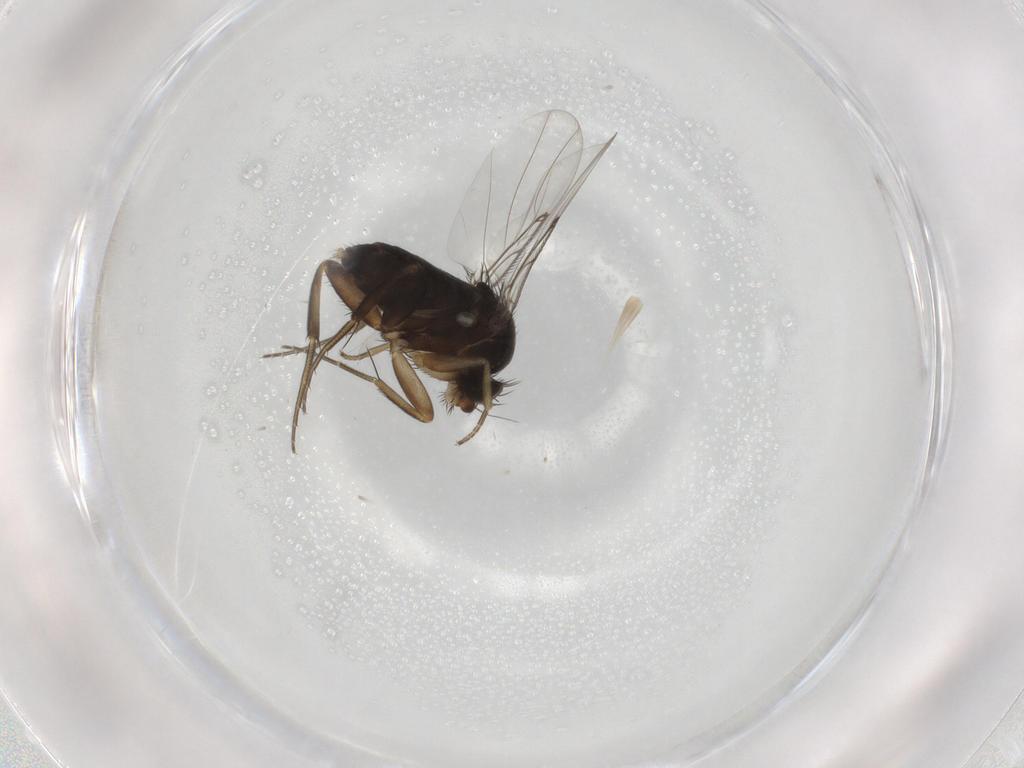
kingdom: Animalia
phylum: Arthropoda
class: Insecta
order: Diptera
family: Phoridae
